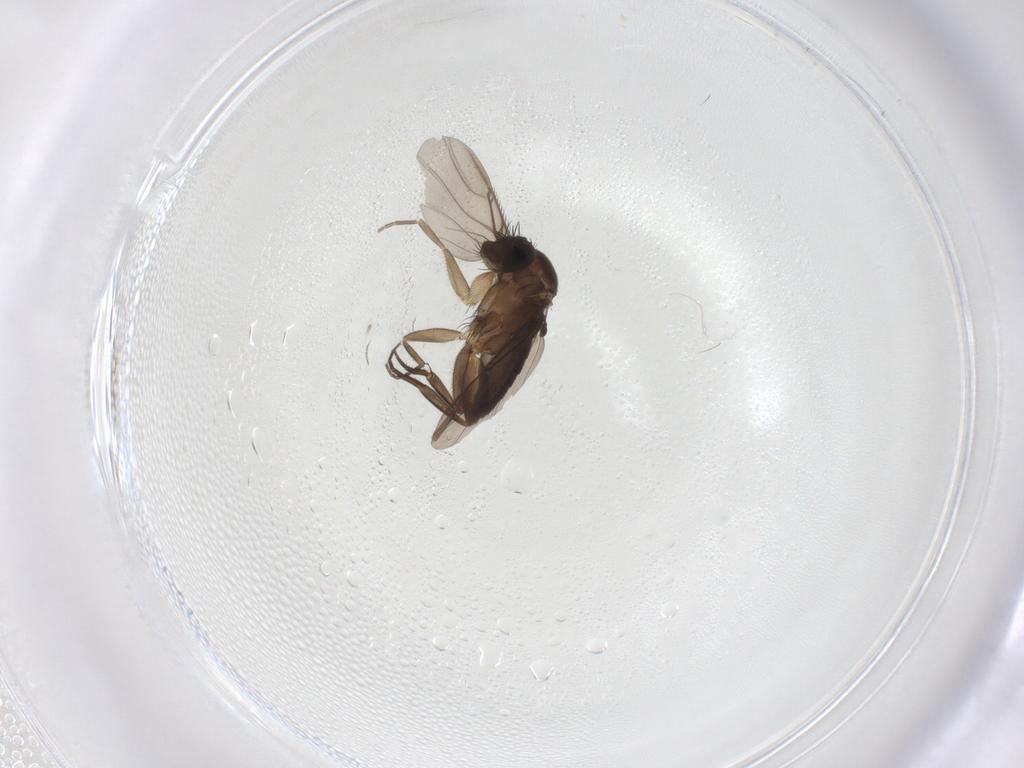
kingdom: Animalia
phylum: Arthropoda
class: Insecta
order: Diptera
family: Phoridae
